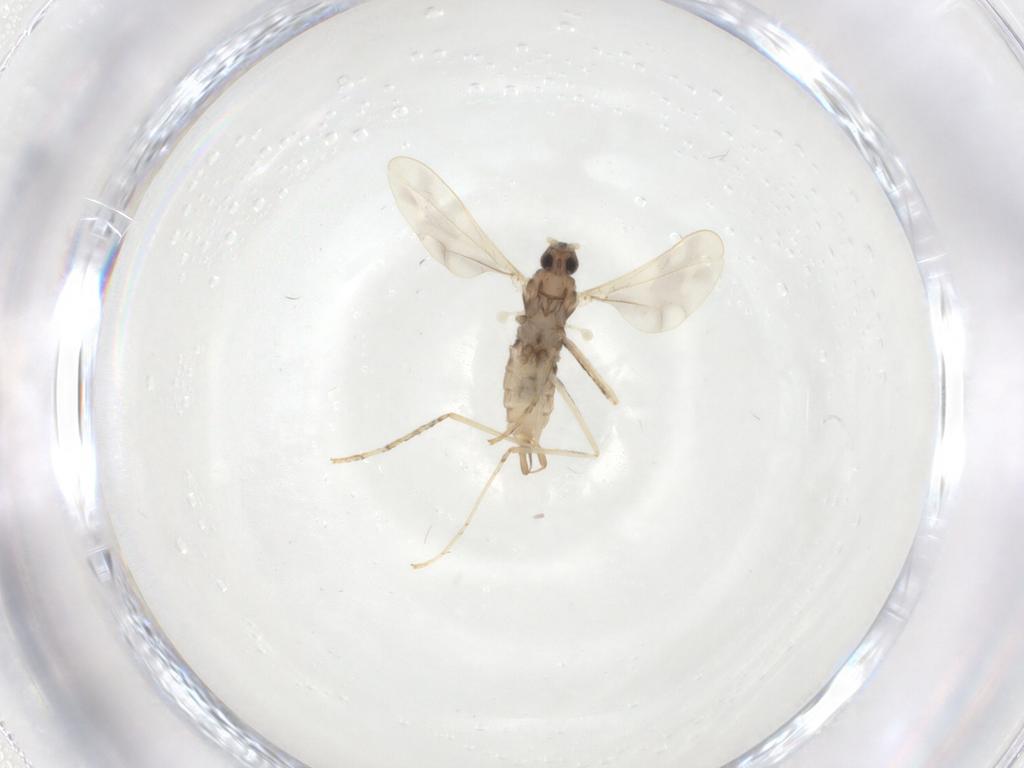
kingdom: Animalia
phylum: Arthropoda
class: Insecta
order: Diptera
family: Cecidomyiidae
